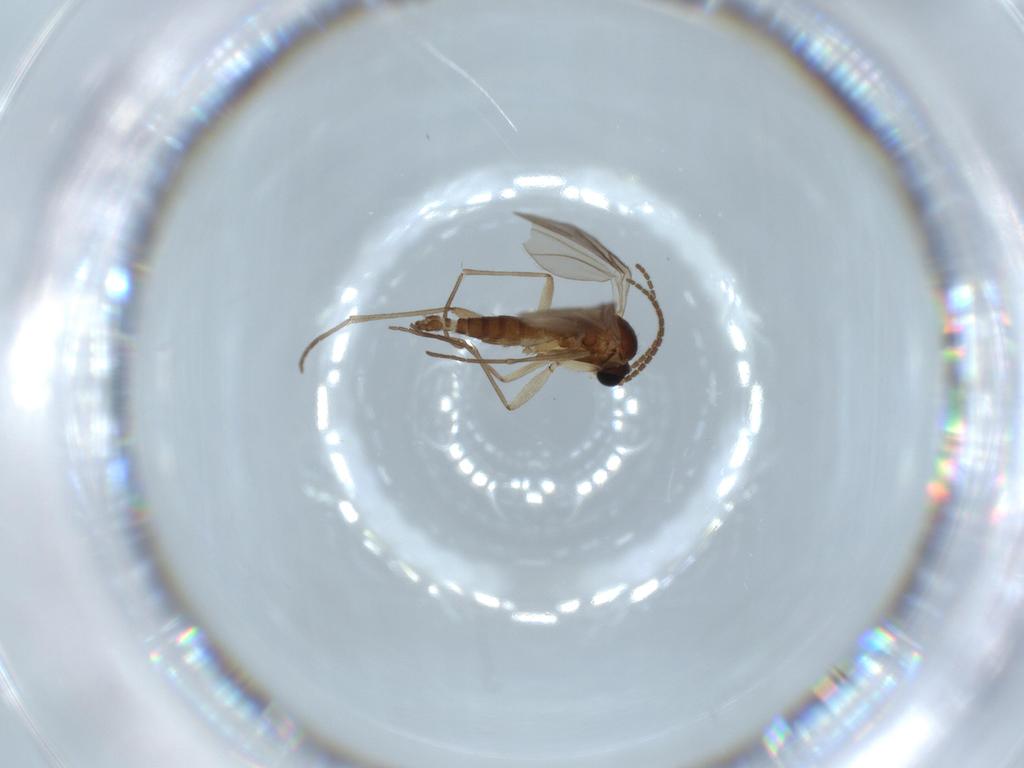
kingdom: Animalia
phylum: Arthropoda
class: Insecta
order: Diptera
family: Sciaridae
